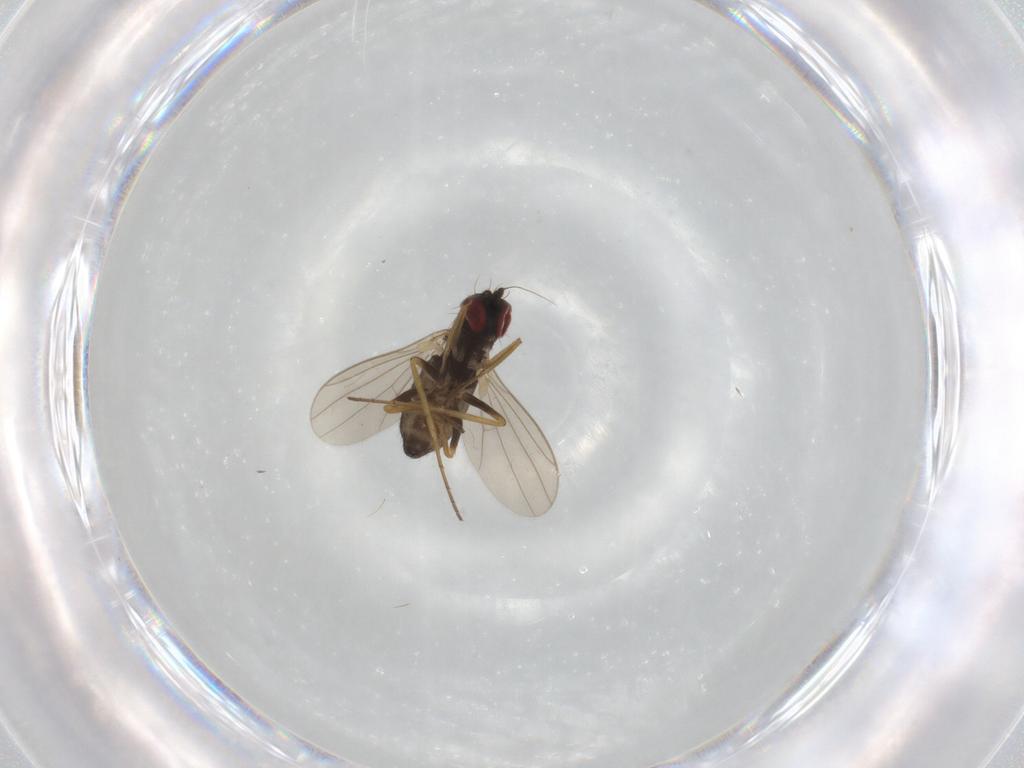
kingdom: Animalia
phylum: Arthropoda
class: Insecta
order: Diptera
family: Dolichopodidae
